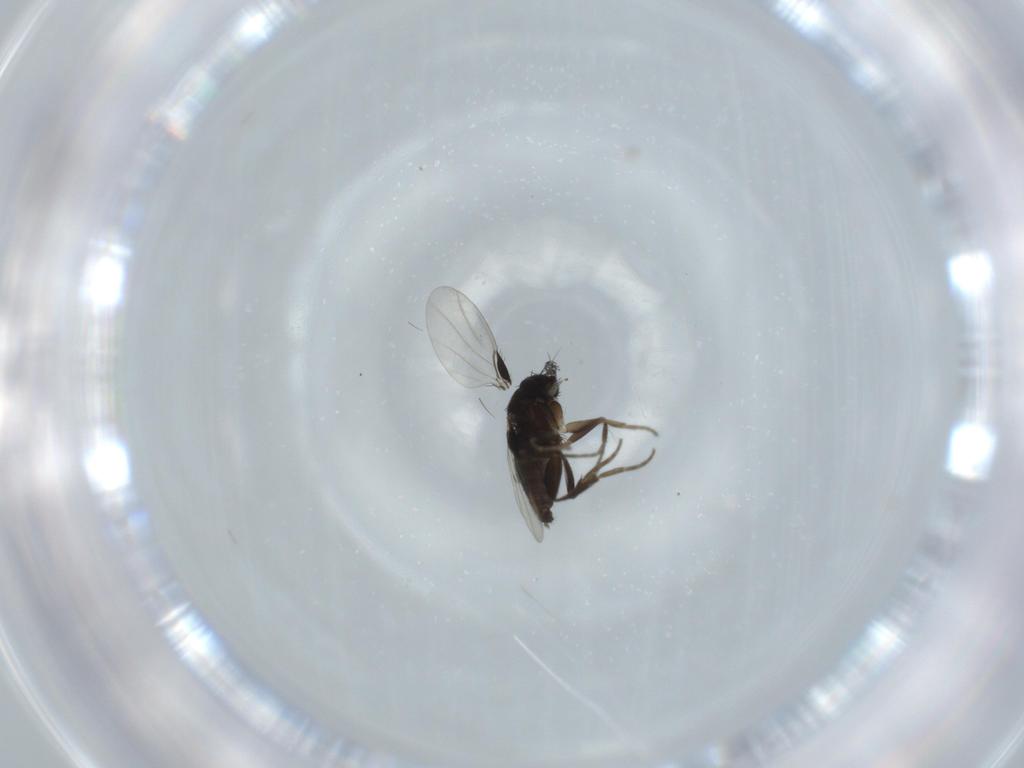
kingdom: Animalia
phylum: Arthropoda
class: Insecta
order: Diptera
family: Phoridae
